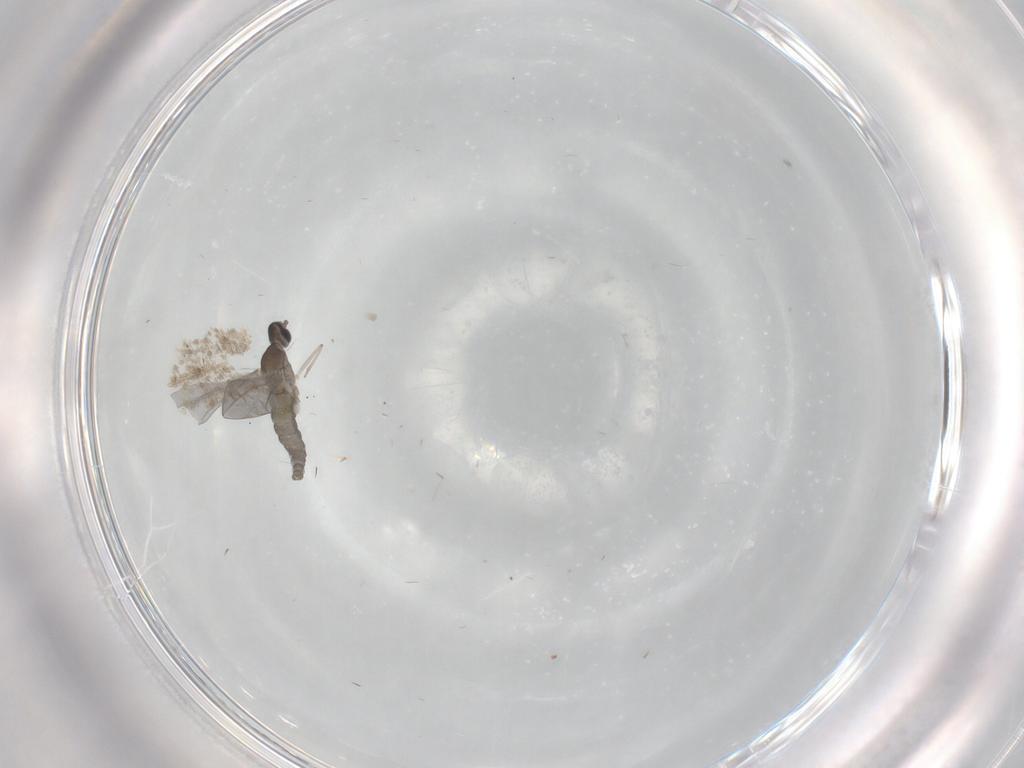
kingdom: Animalia
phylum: Arthropoda
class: Insecta
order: Diptera
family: Cecidomyiidae
